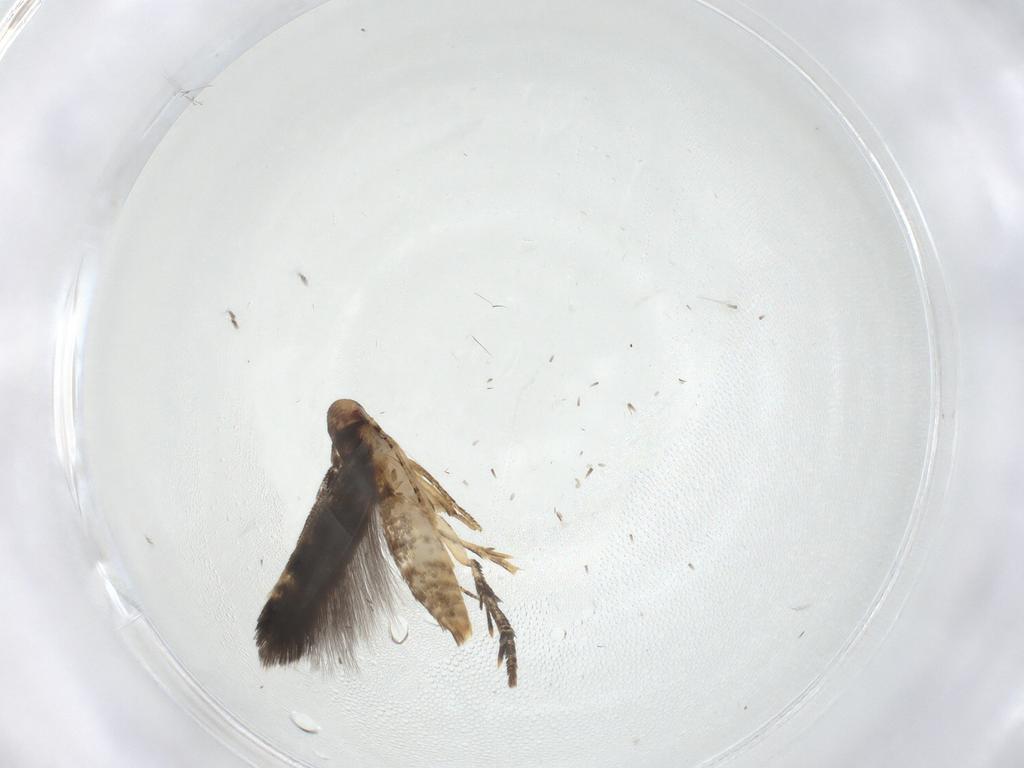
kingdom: Animalia
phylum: Arthropoda
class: Insecta
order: Lepidoptera
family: Momphidae
